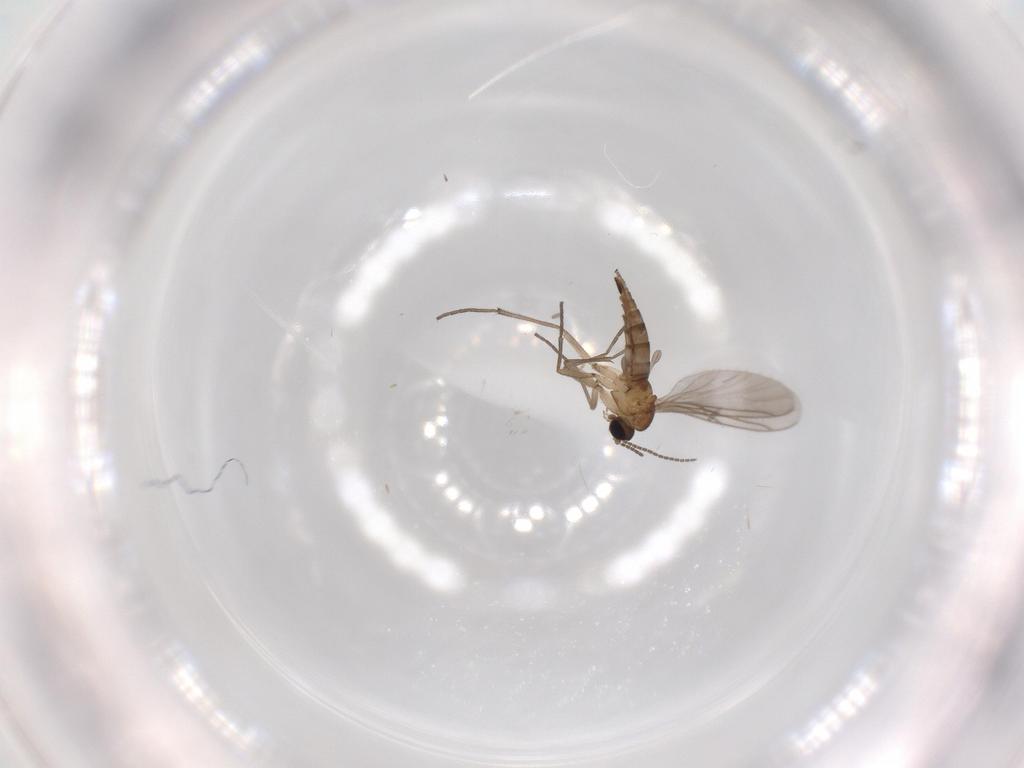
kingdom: Animalia
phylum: Arthropoda
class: Insecta
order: Diptera
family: Sciaridae
